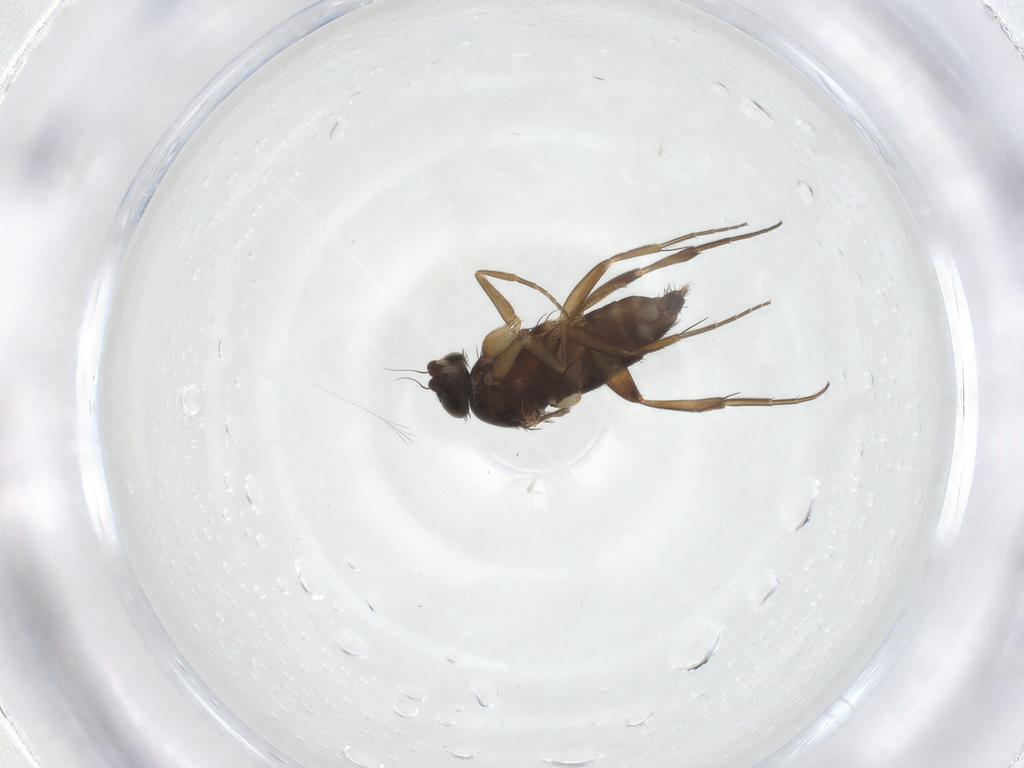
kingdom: Animalia
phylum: Arthropoda
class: Insecta
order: Diptera
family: Phoridae
